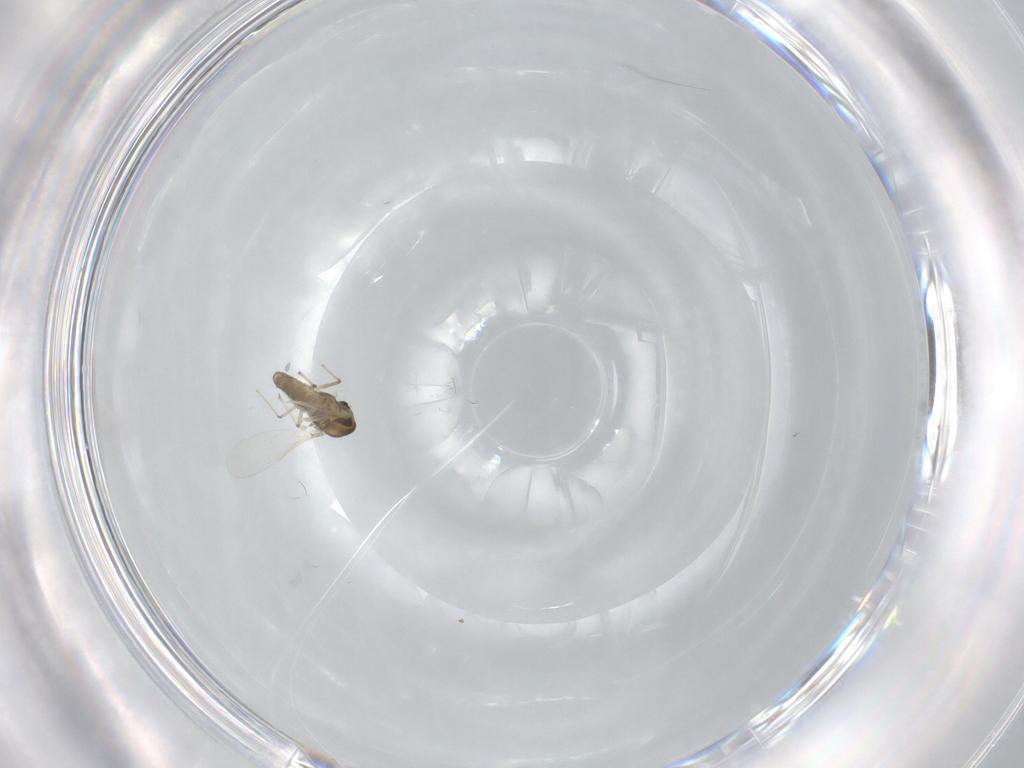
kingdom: Animalia
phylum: Arthropoda
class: Insecta
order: Diptera
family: Chironomidae
